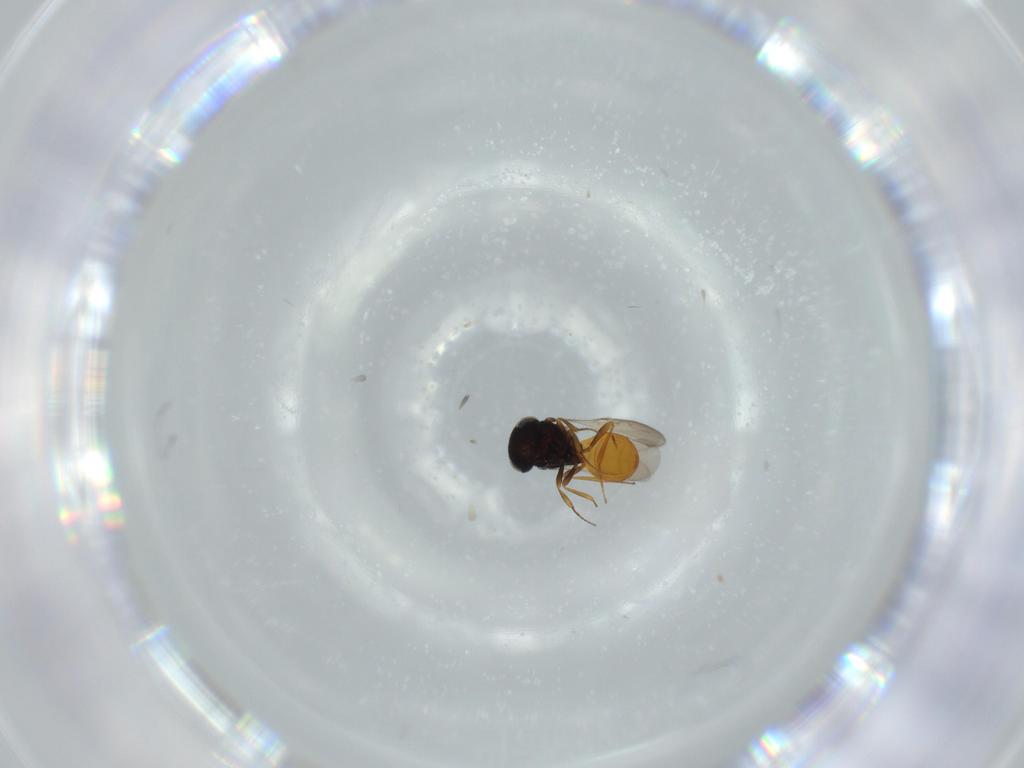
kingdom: Animalia
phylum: Arthropoda
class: Insecta
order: Hymenoptera
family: Scelionidae
